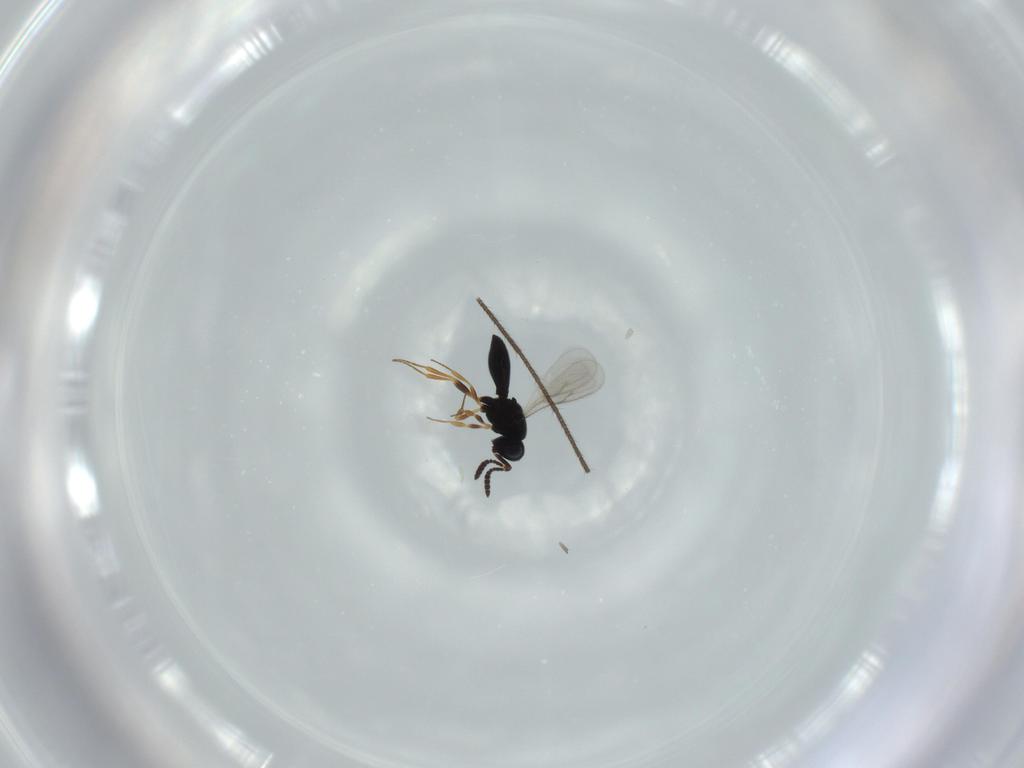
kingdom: Animalia
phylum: Arthropoda
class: Insecta
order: Hymenoptera
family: Scelionidae
